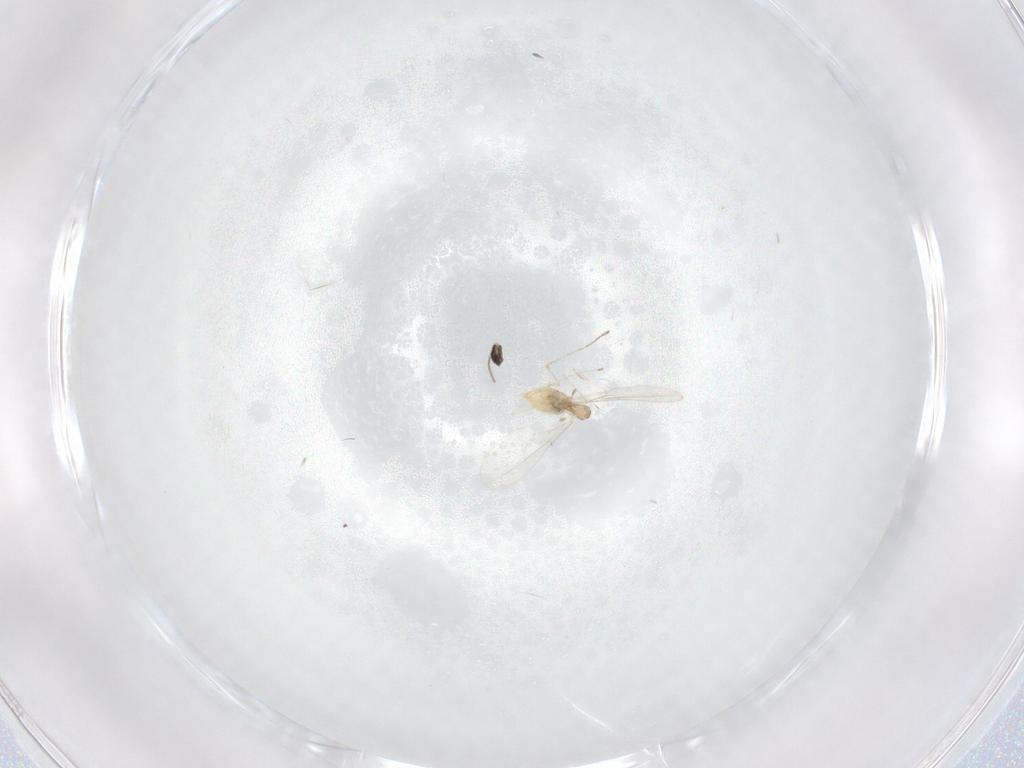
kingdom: Animalia
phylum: Arthropoda
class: Insecta
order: Diptera
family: Cecidomyiidae
